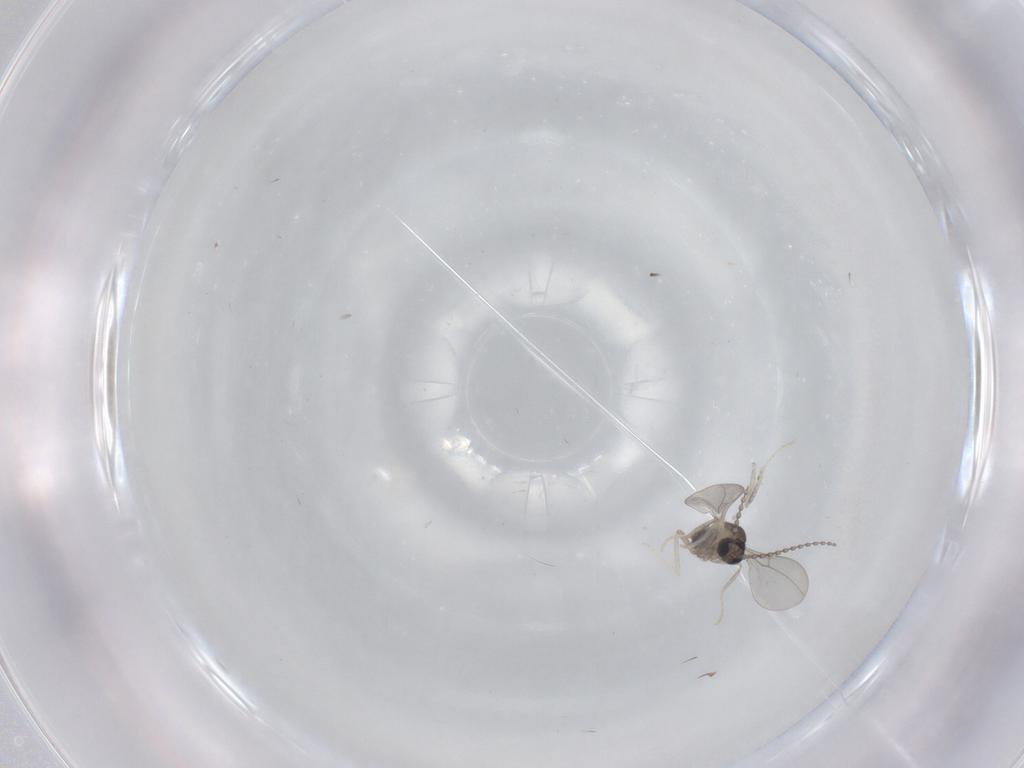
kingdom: Animalia
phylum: Arthropoda
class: Insecta
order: Diptera
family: Cecidomyiidae
